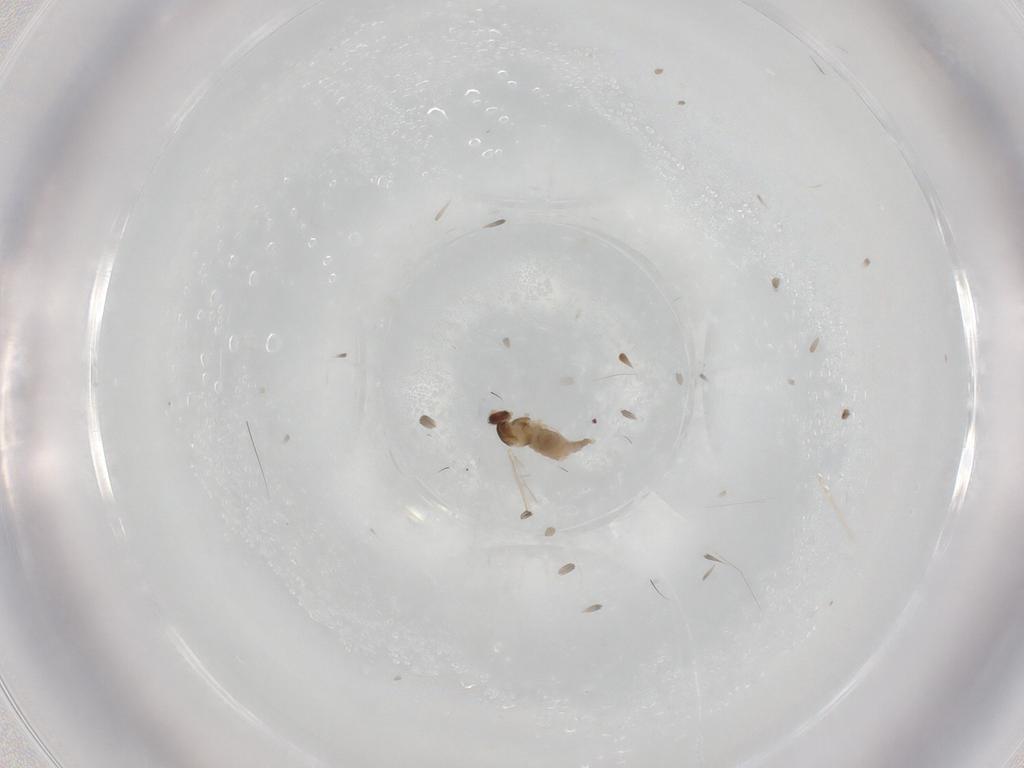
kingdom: Animalia
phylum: Arthropoda
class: Insecta
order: Diptera
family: Cecidomyiidae
